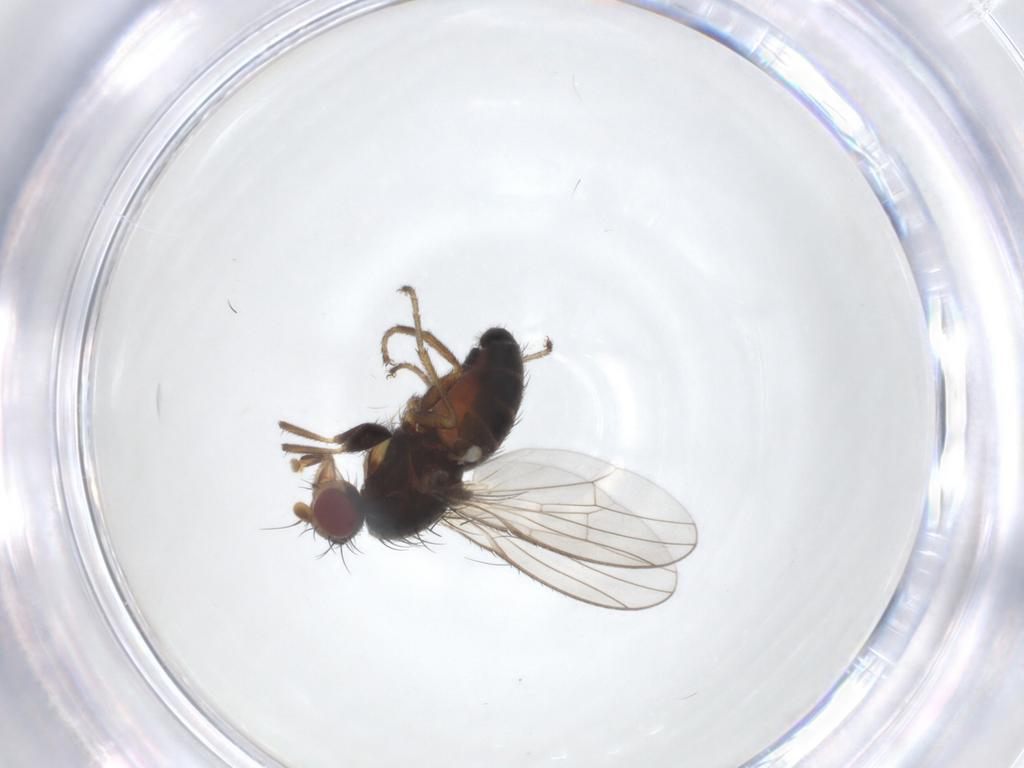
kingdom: Animalia
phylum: Arthropoda
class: Insecta
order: Diptera
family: Heleomyzidae
